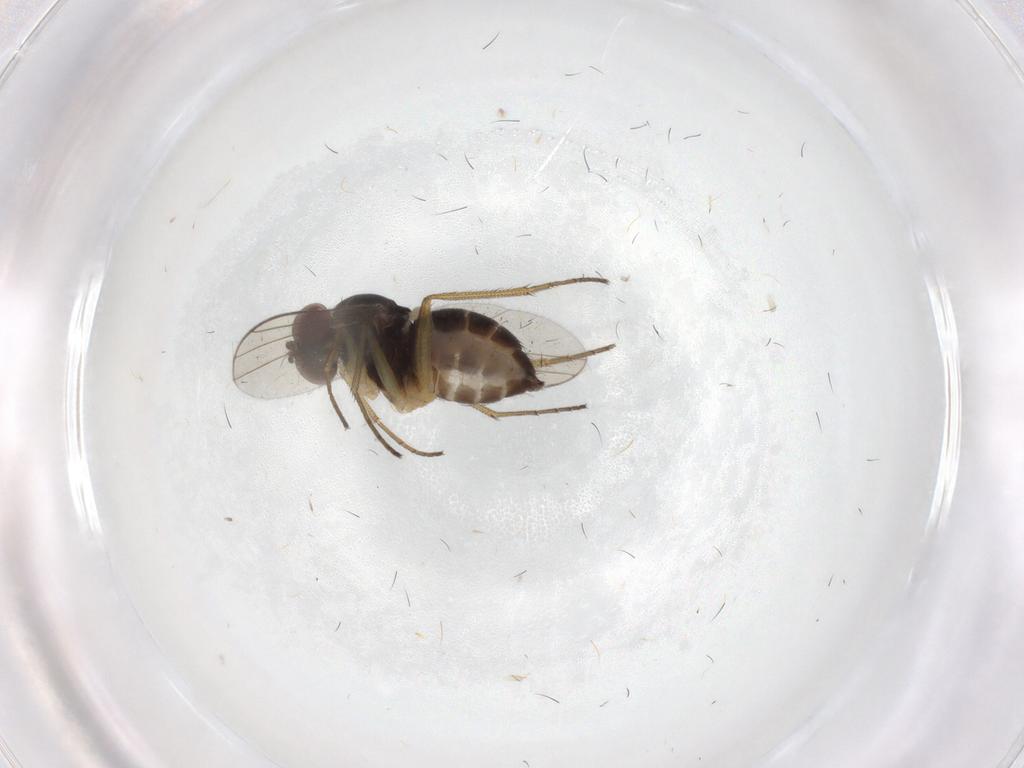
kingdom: Animalia
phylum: Arthropoda
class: Insecta
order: Diptera
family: Dolichopodidae
